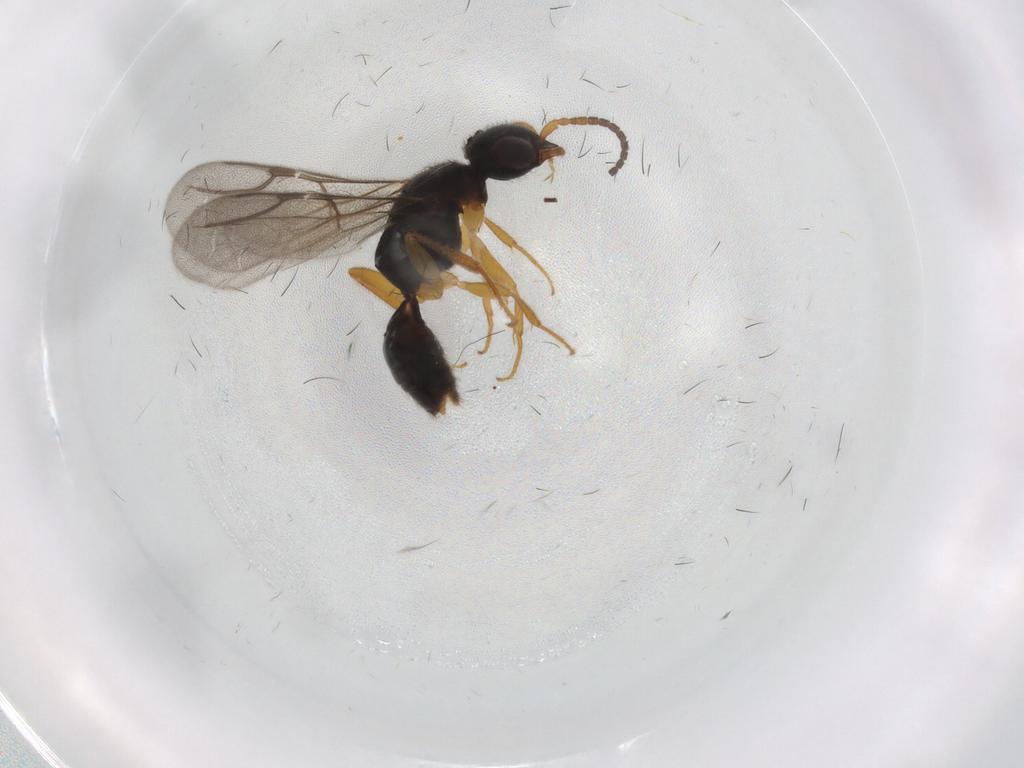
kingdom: Animalia
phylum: Arthropoda
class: Insecta
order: Hymenoptera
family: Bethylidae
